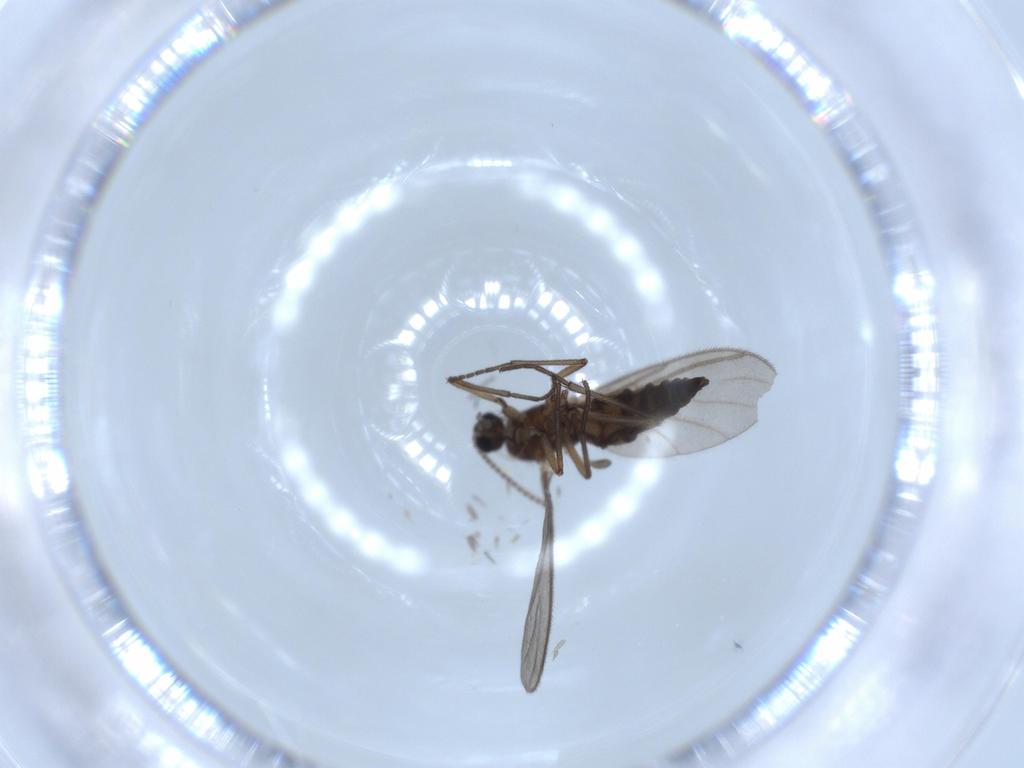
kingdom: Animalia
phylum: Arthropoda
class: Insecta
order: Diptera
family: Sciaridae
